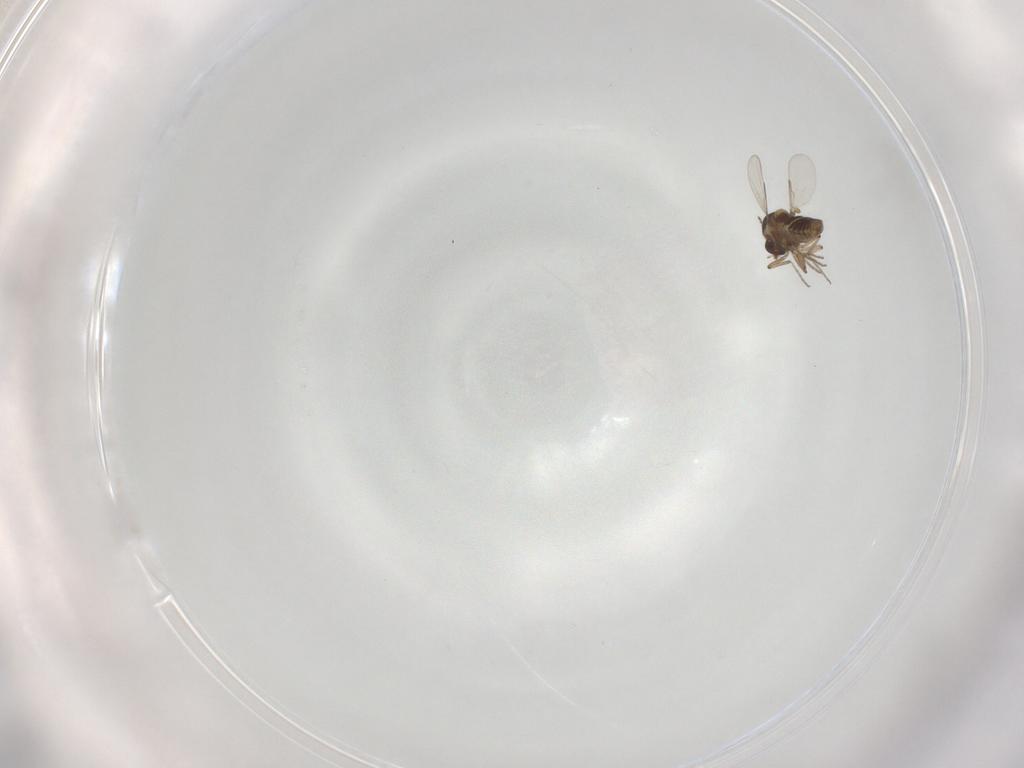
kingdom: Animalia
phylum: Arthropoda
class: Insecta
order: Diptera
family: Ceratopogonidae
